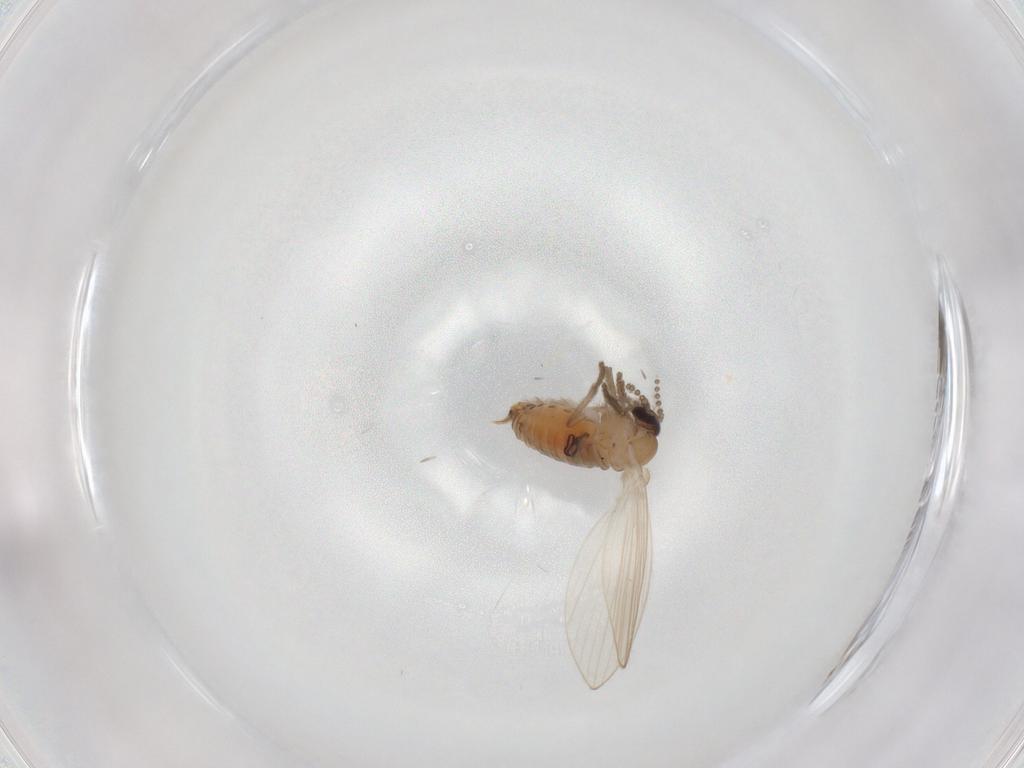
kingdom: Animalia
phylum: Arthropoda
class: Insecta
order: Diptera
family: Psychodidae
